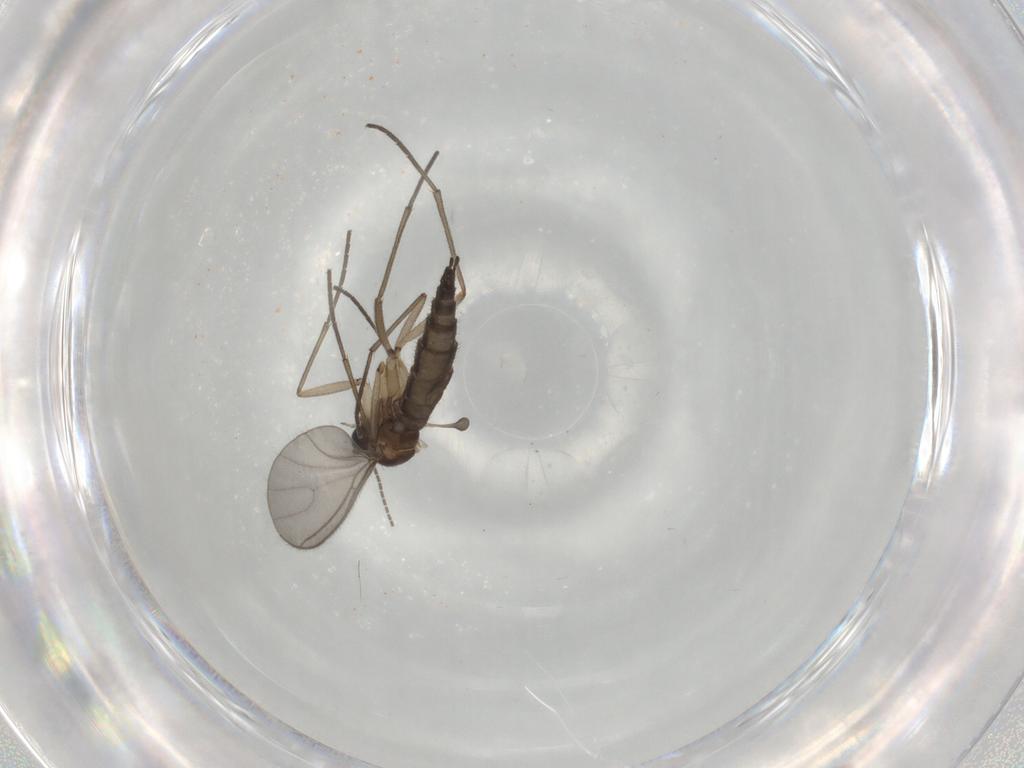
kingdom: Animalia
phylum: Arthropoda
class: Insecta
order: Diptera
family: Sciaridae
